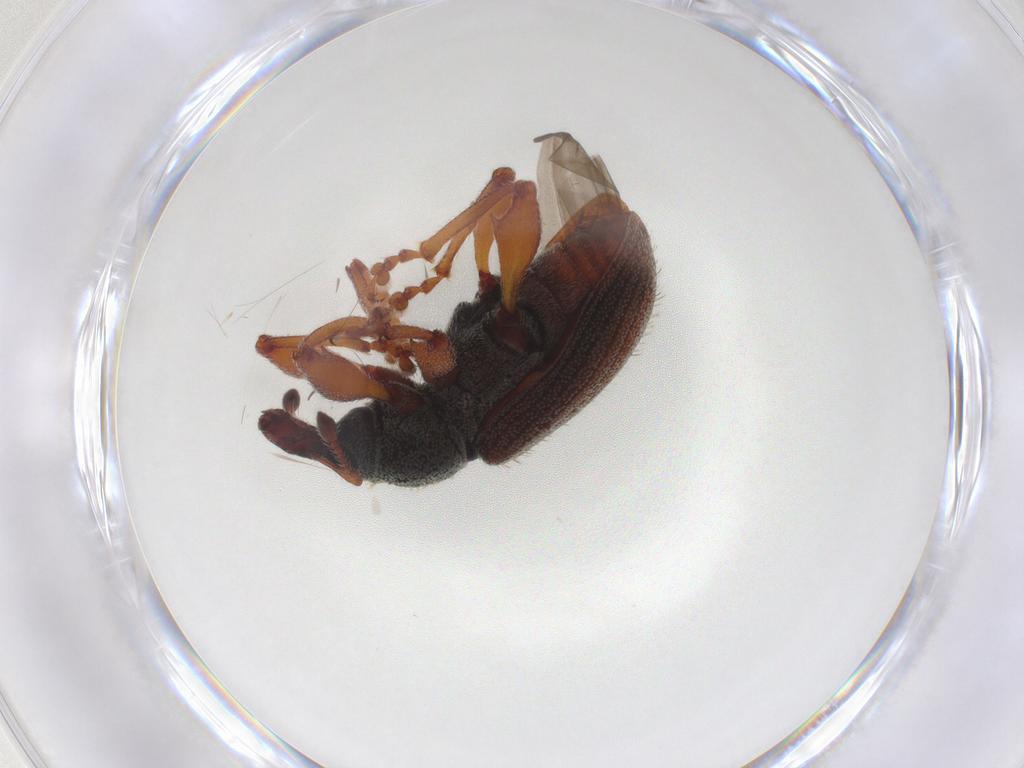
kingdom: Animalia
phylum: Arthropoda
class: Insecta
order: Coleoptera
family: Curculionidae
